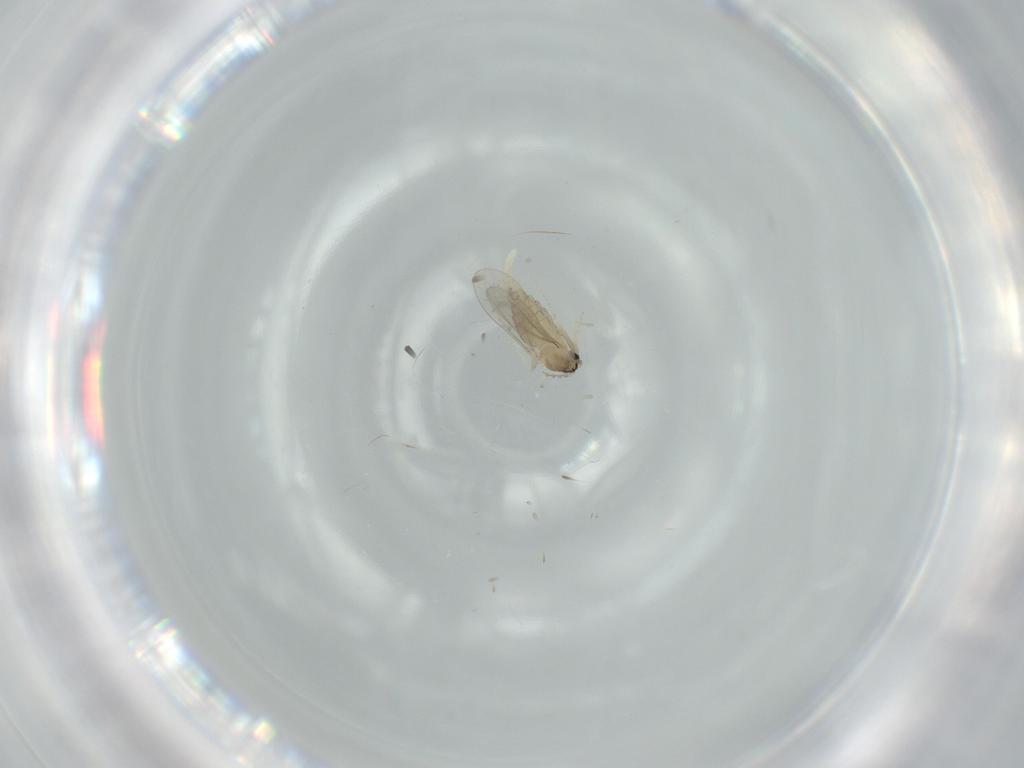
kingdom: Animalia
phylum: Arthropoda
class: Insecta
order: Diptera
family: Cecidomyiidae
